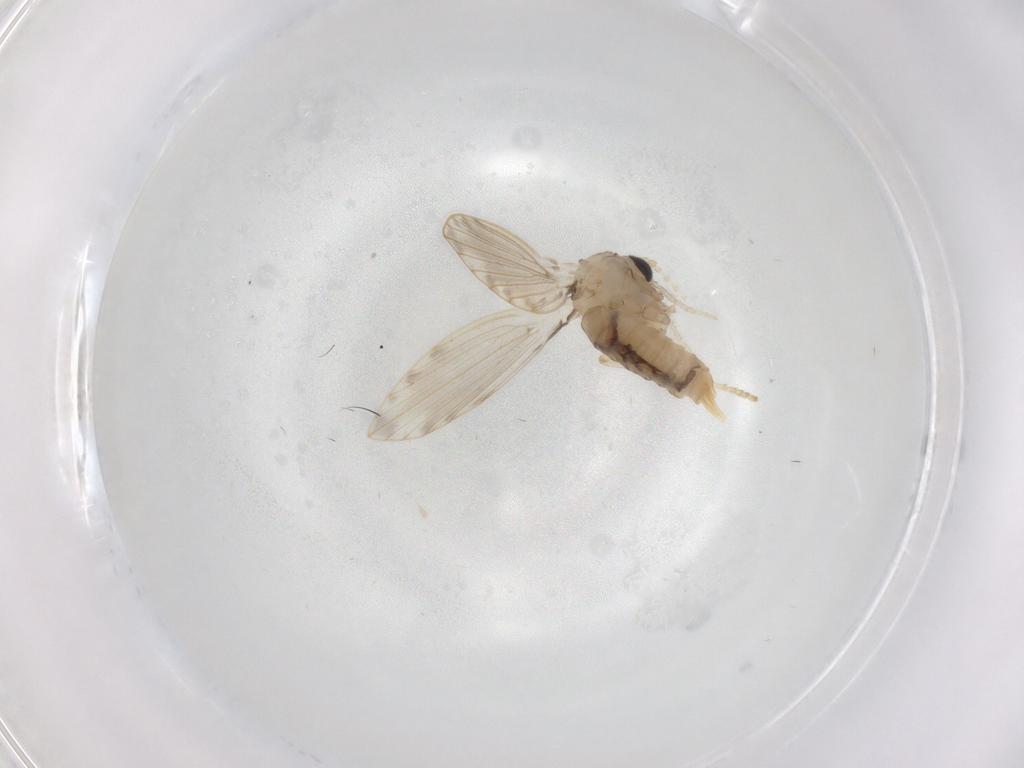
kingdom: Animalia
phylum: Arthropoda
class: Insecta
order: Diptera
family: Psychodidae
